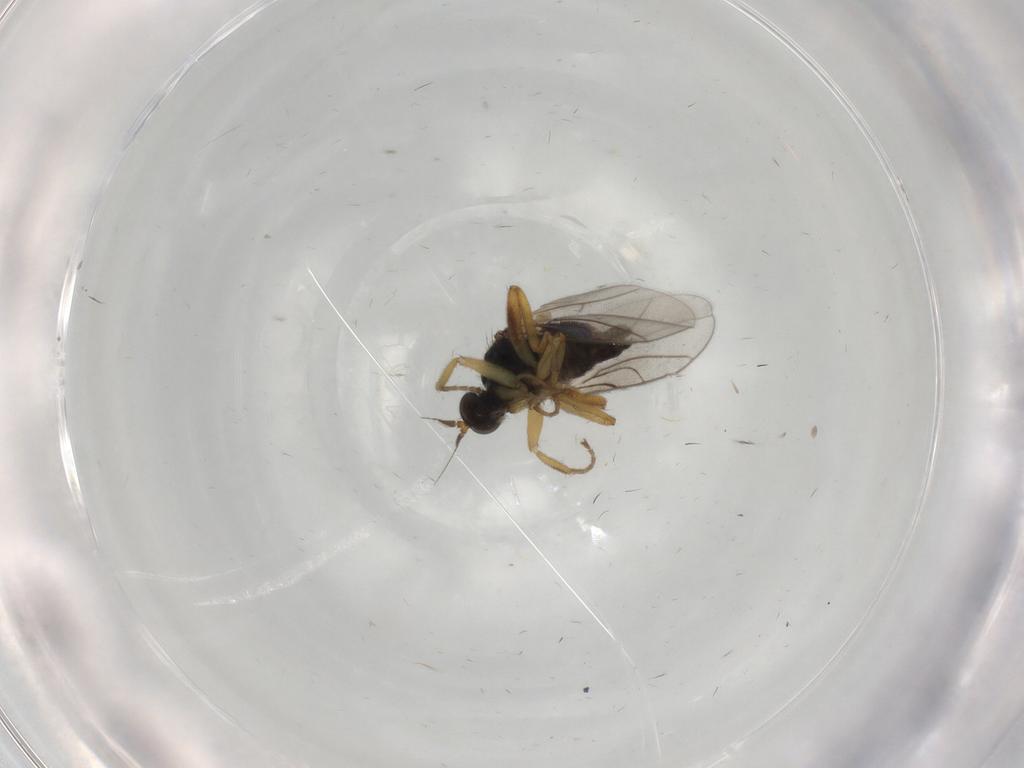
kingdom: Animalia
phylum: Arthropoda
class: Insecta
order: Diptera
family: Hybotidae
